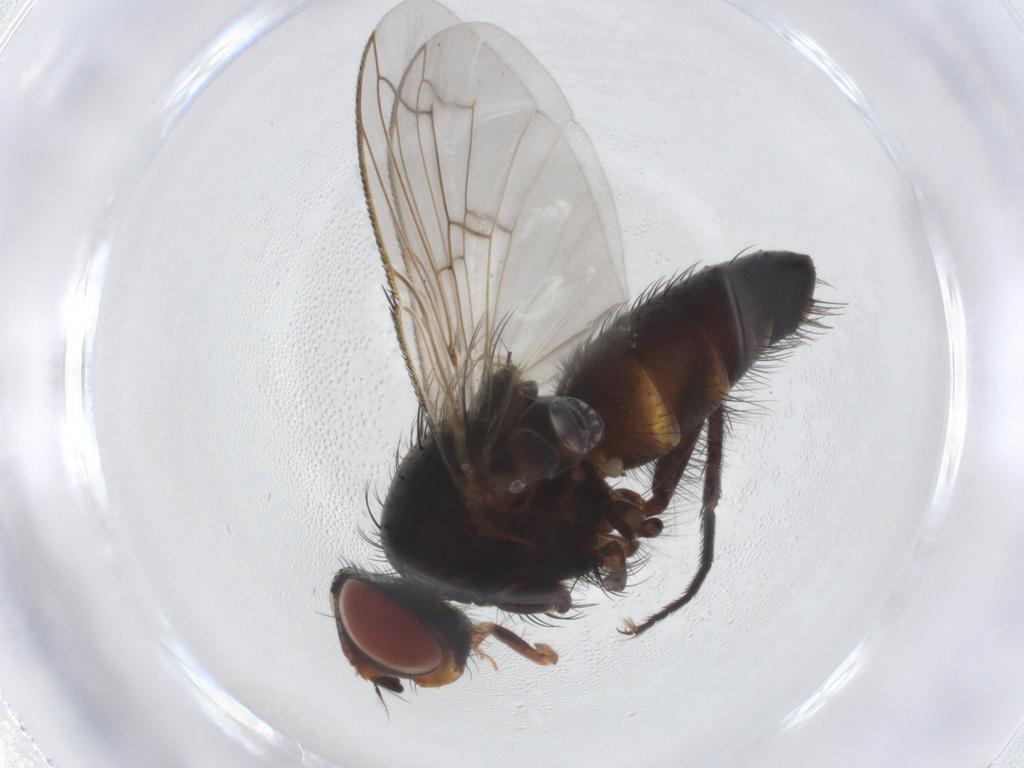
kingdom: Animalia
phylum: Arthropoda
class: Insecta
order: Diptera
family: Tachinidae
